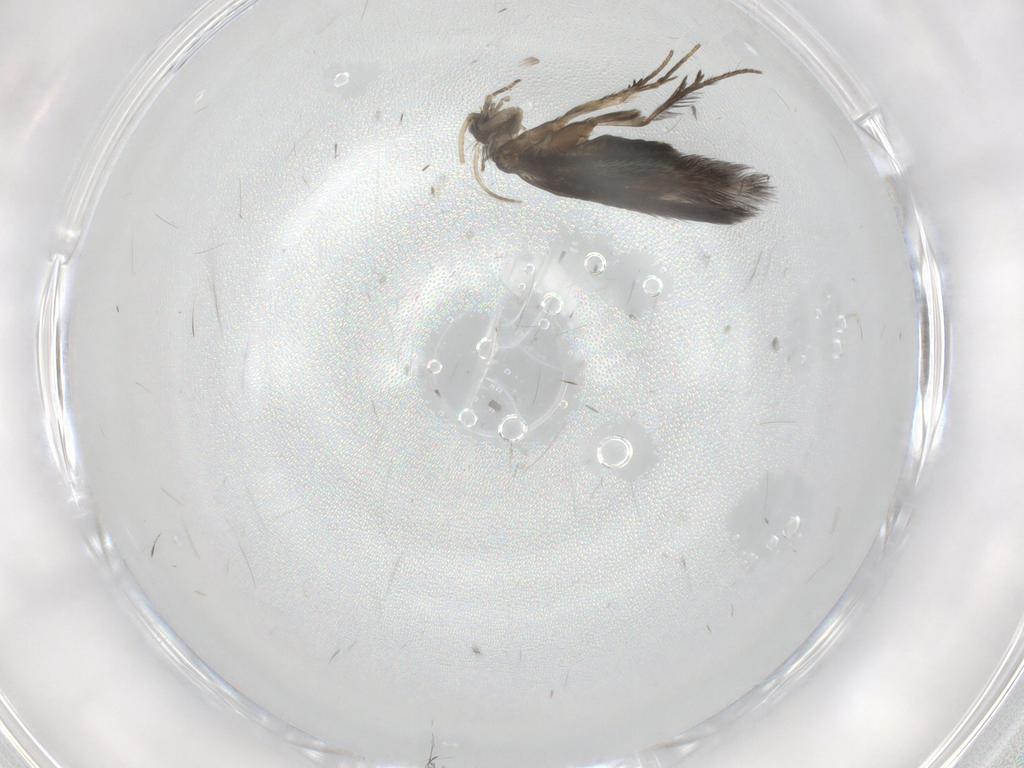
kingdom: Animalia
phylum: Arthropoda
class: Insecta
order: Trichoptera
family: Hydroptilidae
